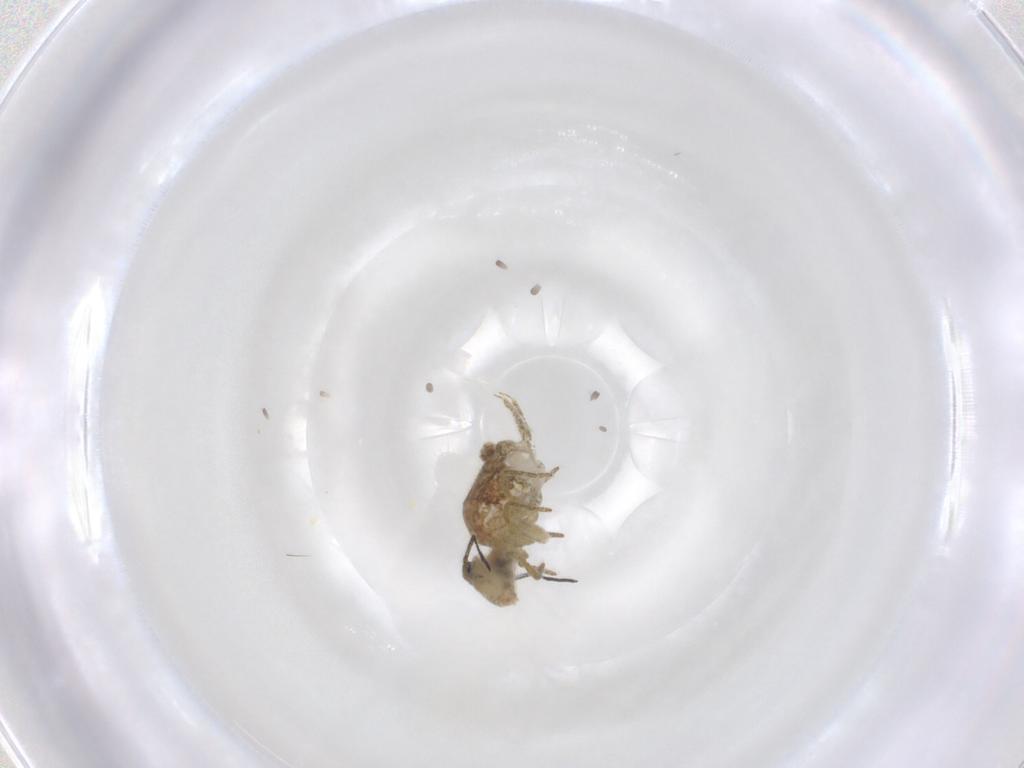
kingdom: Animalia
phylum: Arthropoda
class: Collembola
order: Symphypleona
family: Sminthuridae
